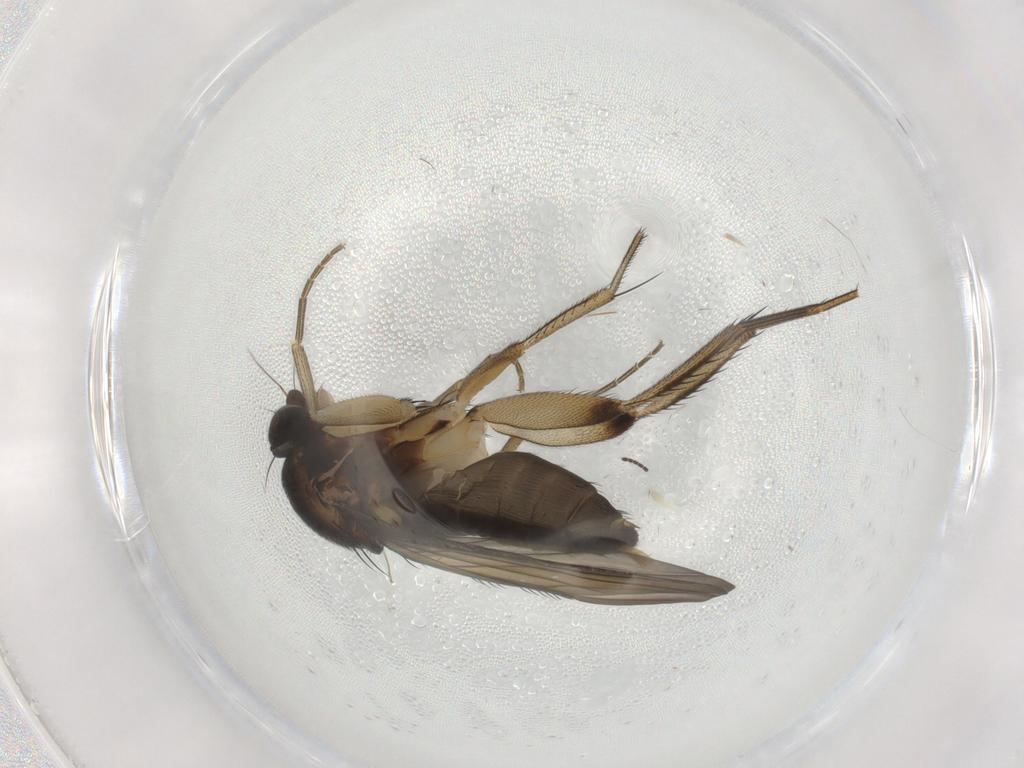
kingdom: Animalia
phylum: Arthropoda
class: Insecta
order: Diptera
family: Phoridae
